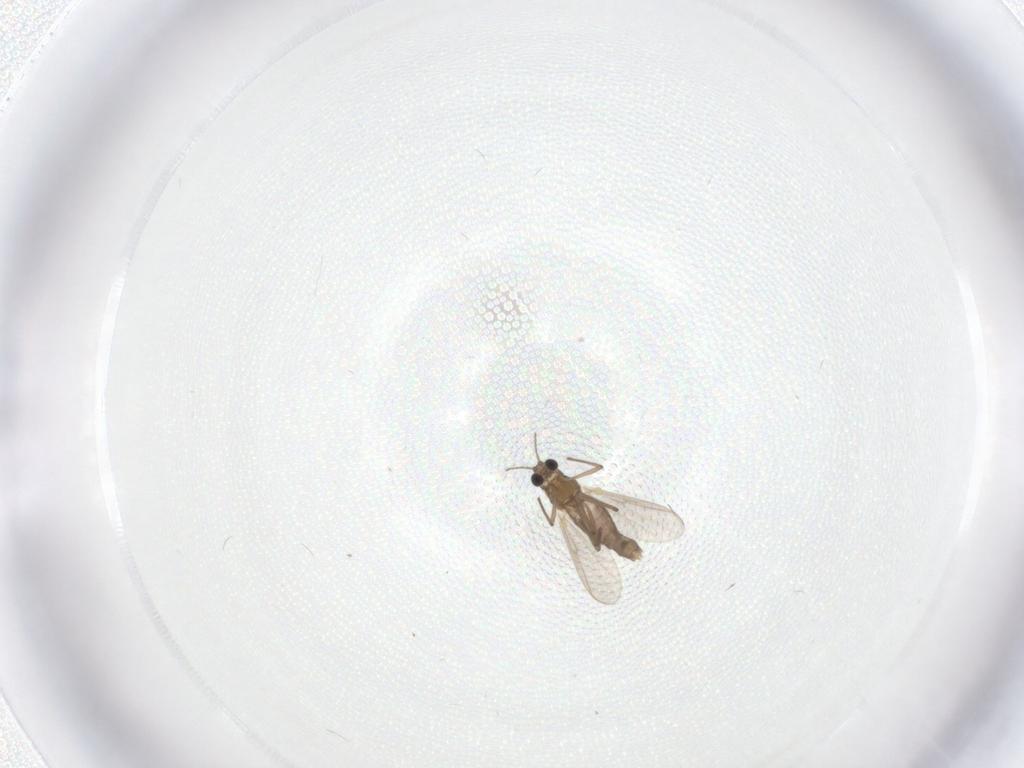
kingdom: Animalia
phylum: Arthropoda
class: Insecta
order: Diptera
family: Chironomidae
